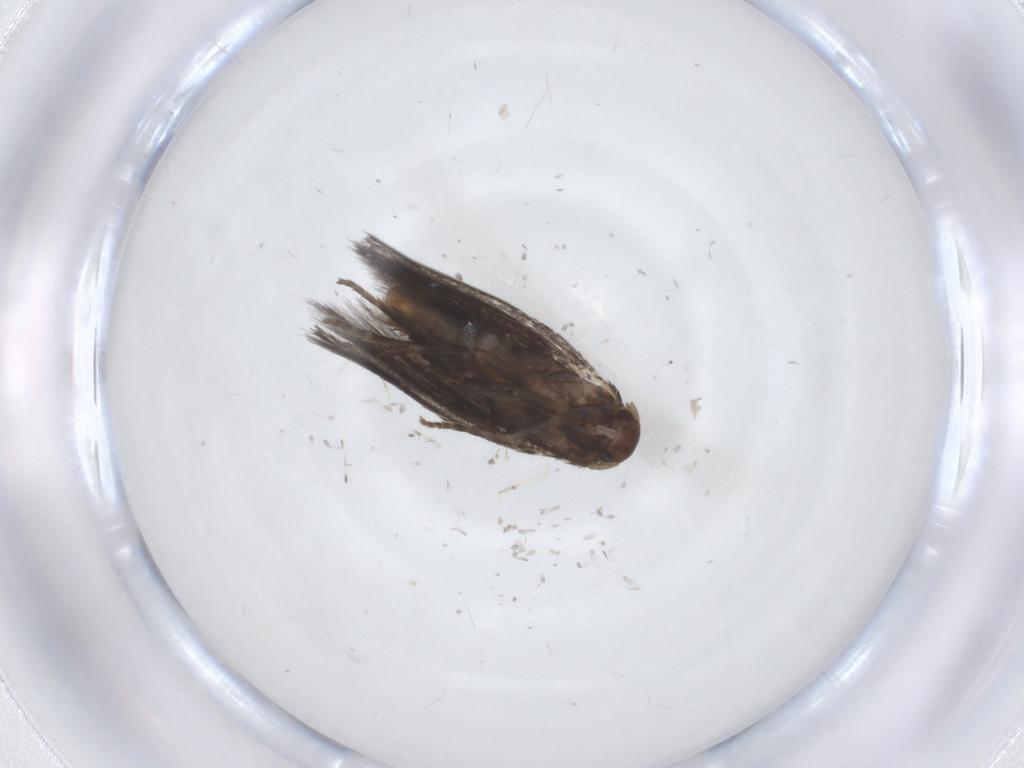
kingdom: Animalia
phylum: Arthropoda
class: Insecta
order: Lepidoptera
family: Elachistidae
